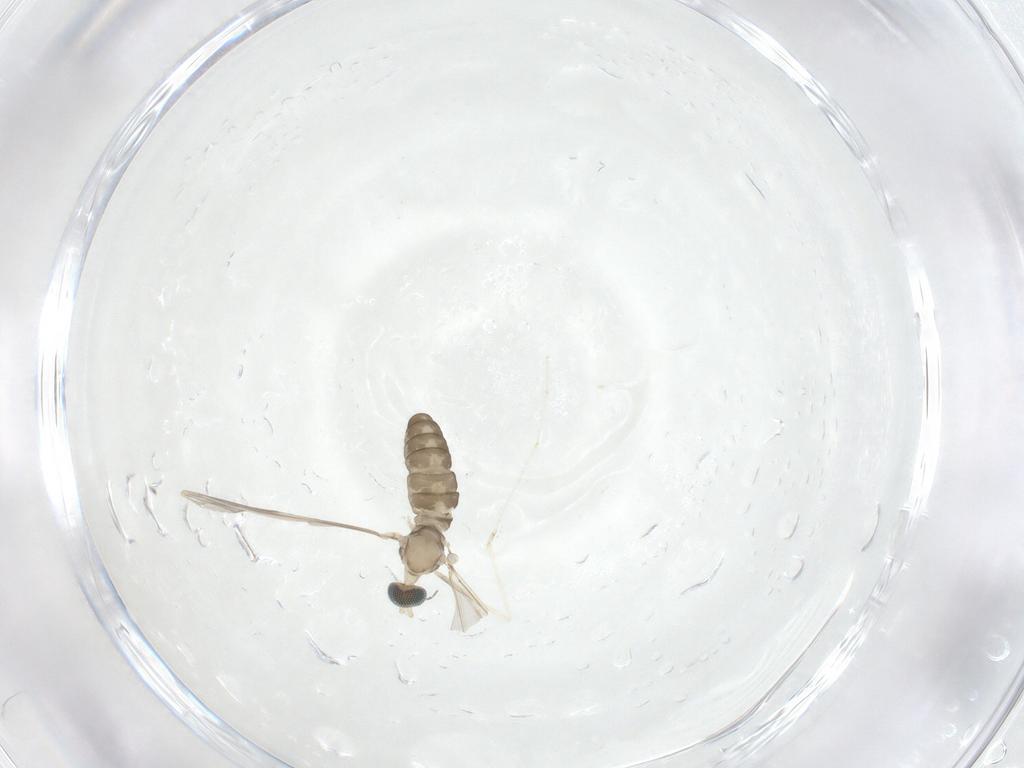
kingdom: Animalia
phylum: Arthropoda
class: Insecta
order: Diptera
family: Cecidomyiidae
